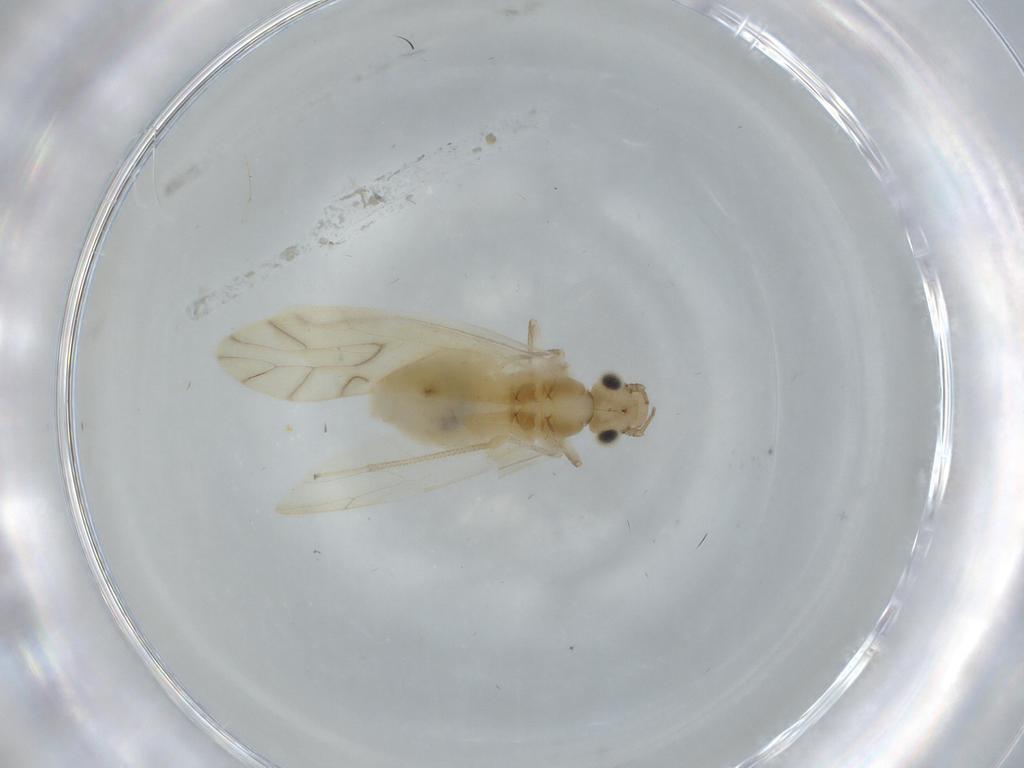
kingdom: Animalia
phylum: Arthropoda
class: Insecta
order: Psocodea
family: Caeciliusidae
